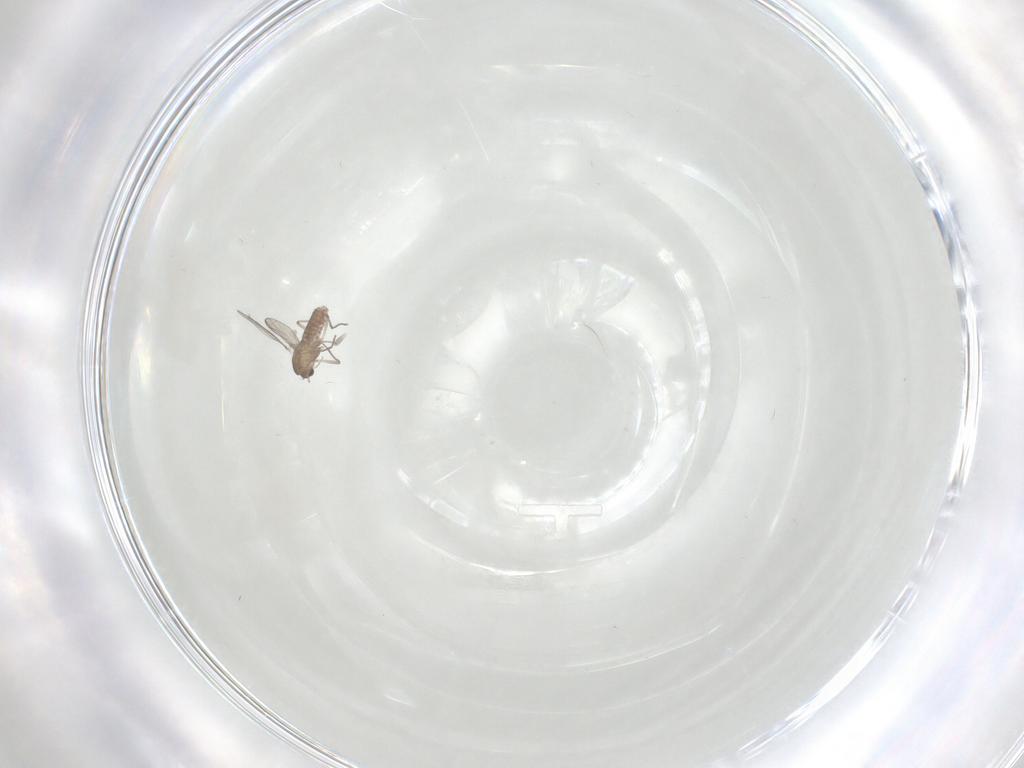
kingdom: Animalia
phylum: Arthropoda
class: Insecta
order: Diptera
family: Chironomidae
